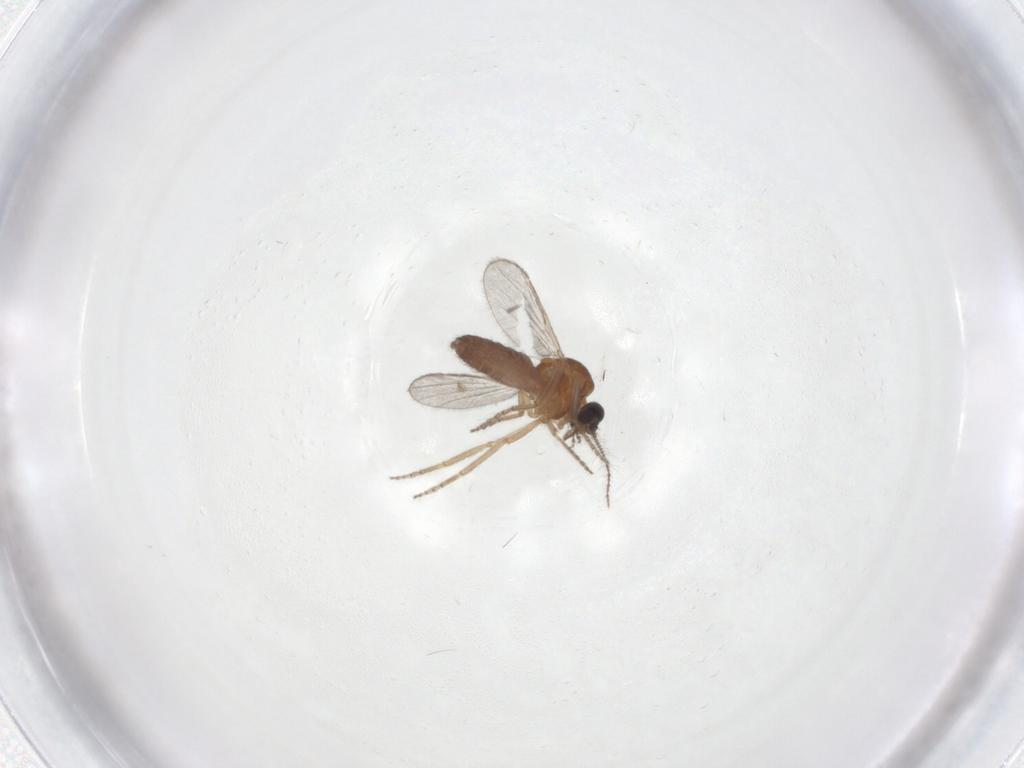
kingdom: Animalia
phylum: Arthropoda
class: Insecta
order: Diptera
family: Ceratopogonidae
